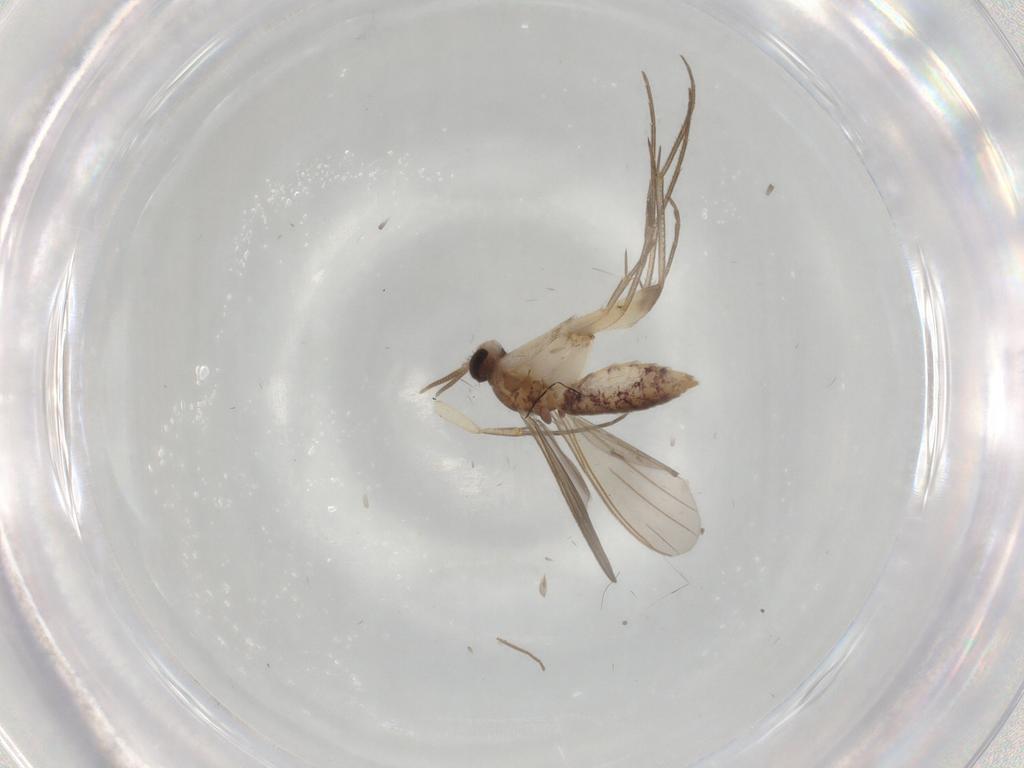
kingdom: Animalia
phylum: Arthropoda
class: Insecta
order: Diptera
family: Mycetophilidae
